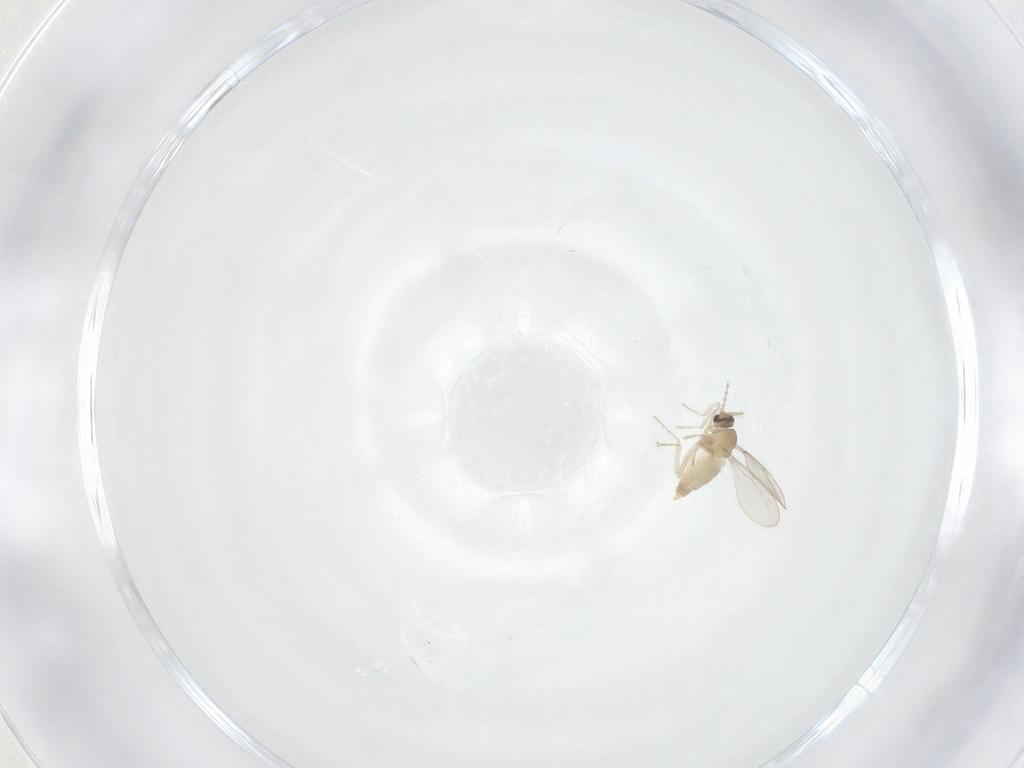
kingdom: Animalia
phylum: Arthropoda
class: Insecta
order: Diptera
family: Cecidomyiidae
